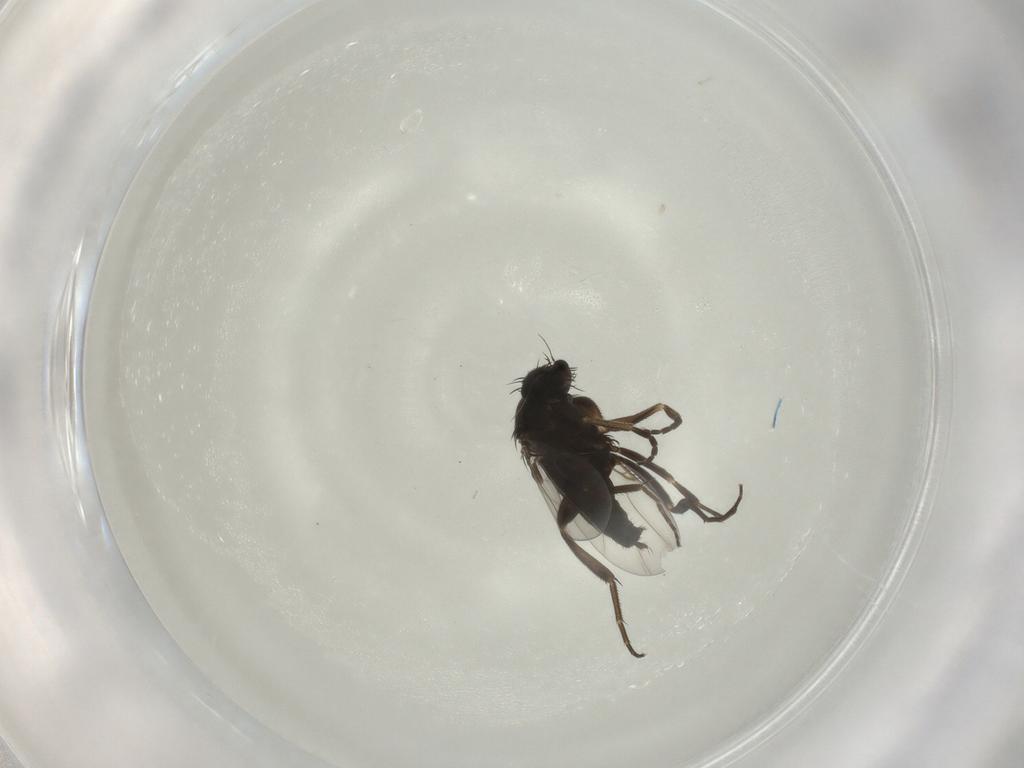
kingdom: Animalia
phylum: Arthropoda
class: Insecta
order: Diptera
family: Phoridae
